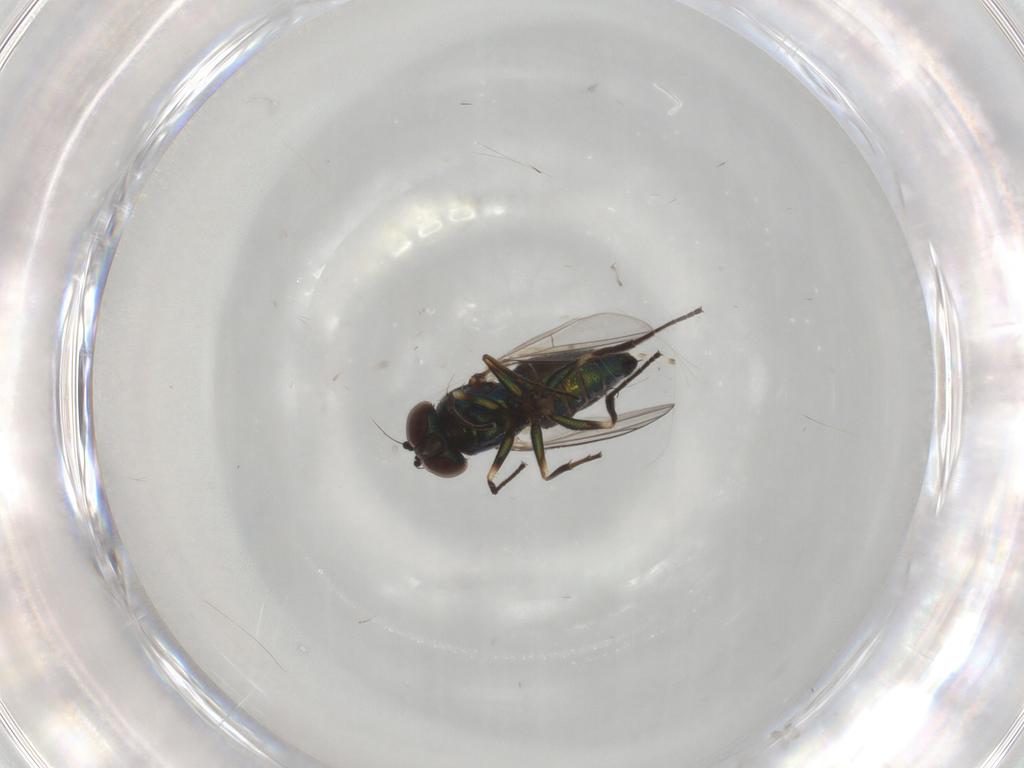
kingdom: Animalia
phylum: Arthropoda
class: Insecta
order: Diptera
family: Dolichopodidae
